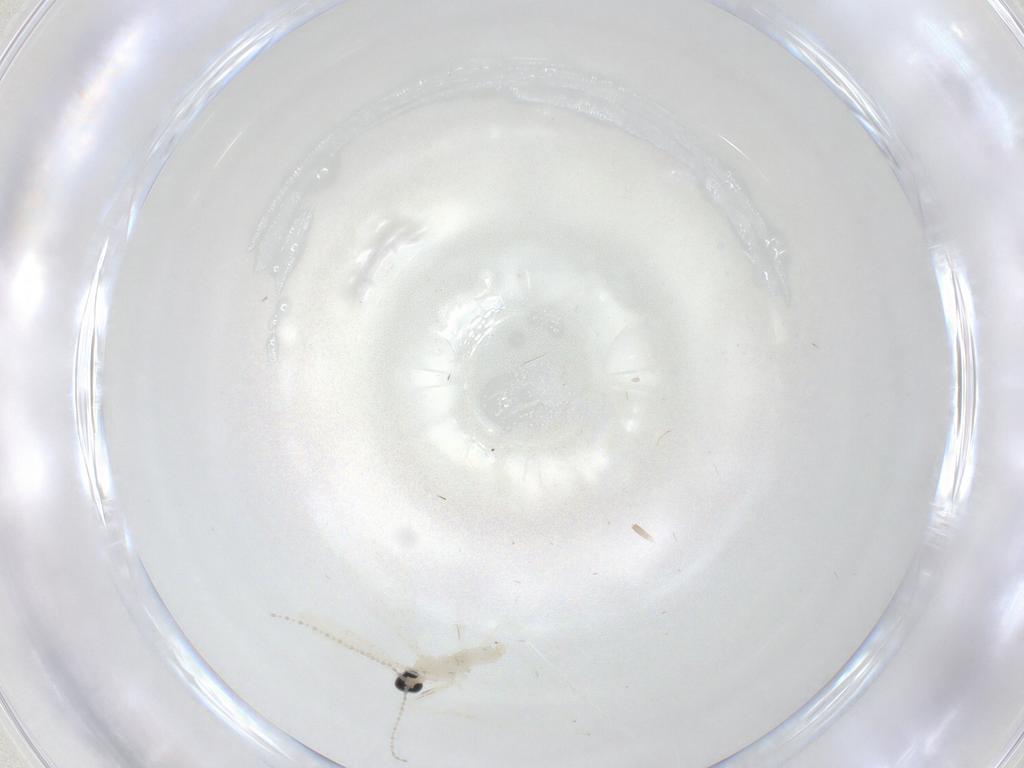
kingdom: Animalia
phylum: Arthropoda
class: Insecta
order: Diptera
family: Cecidomyiidae
